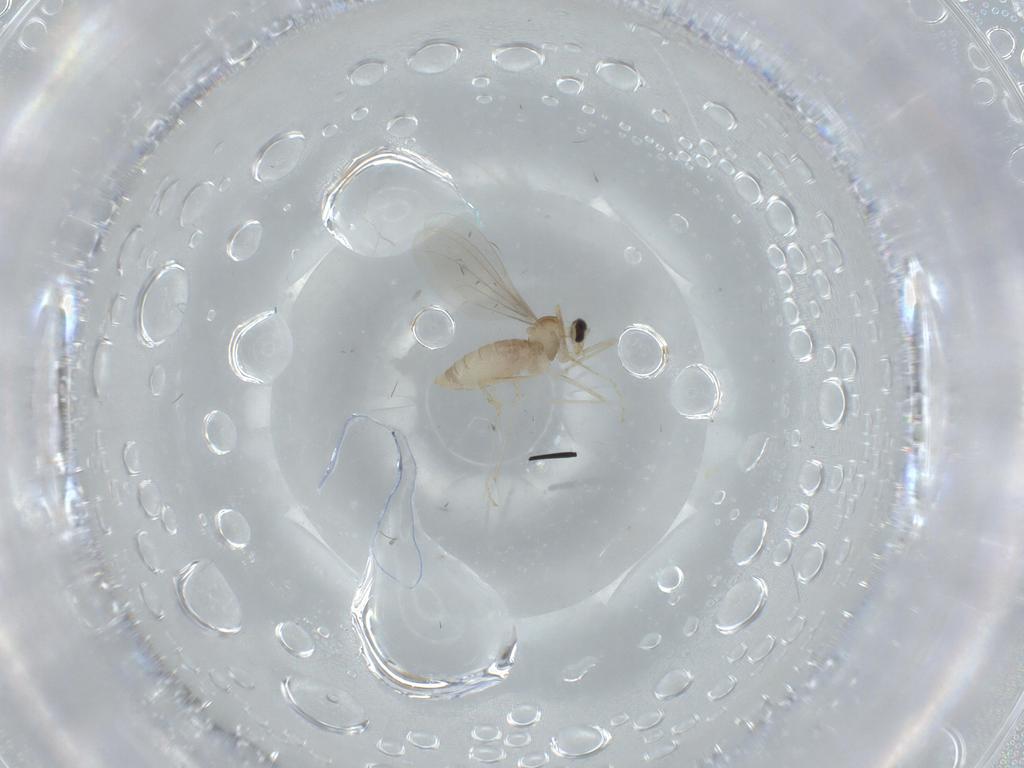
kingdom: Animalia
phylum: Arthropoda
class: Insecta
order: Diptera
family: Cecidomyiidae
